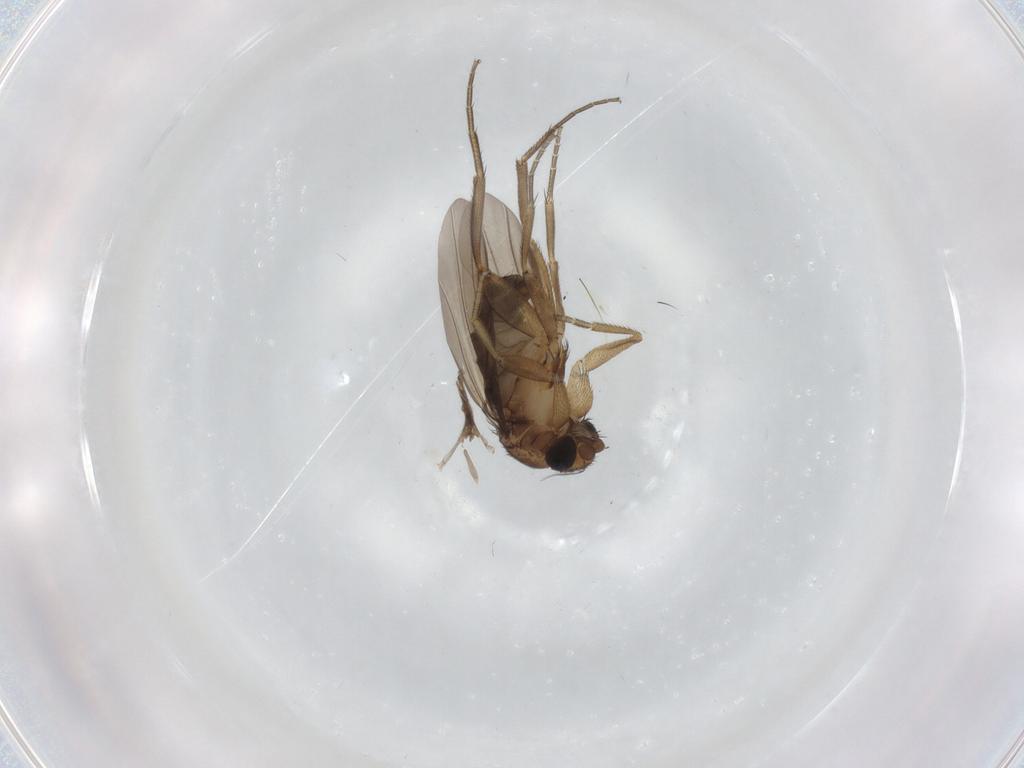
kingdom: Animalia
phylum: Arthropoda
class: Insecta
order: Diptera
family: Phoridae
